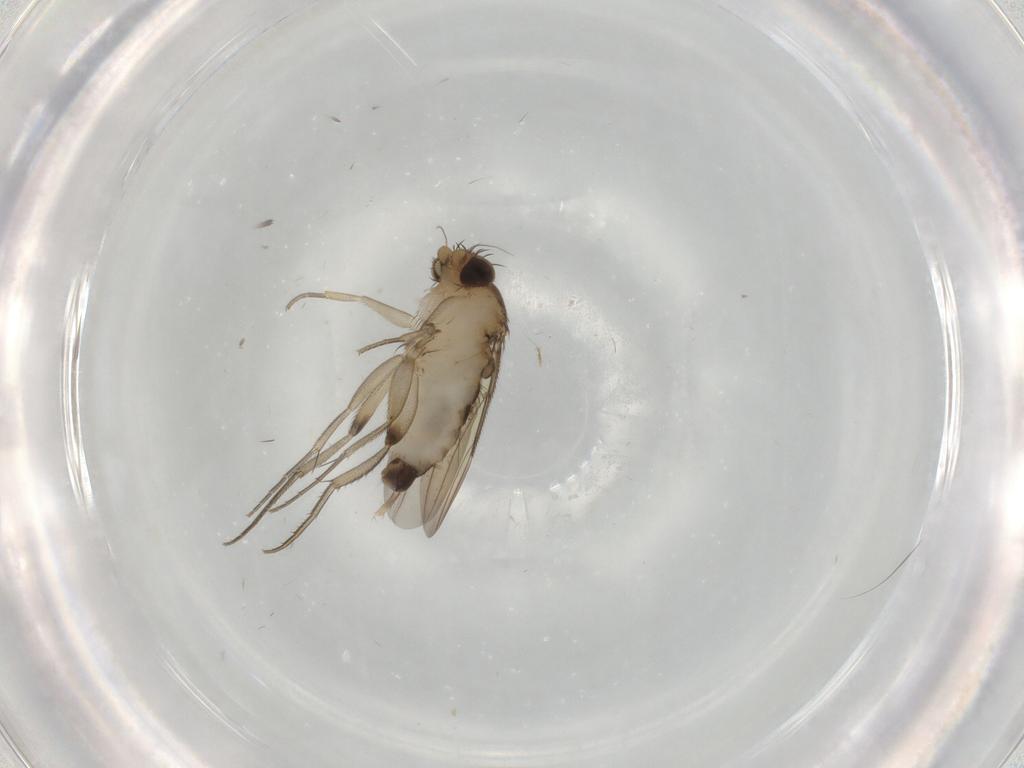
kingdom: Animalia
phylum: Arthropoda
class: Insecta
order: Diptera
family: Phoridae
